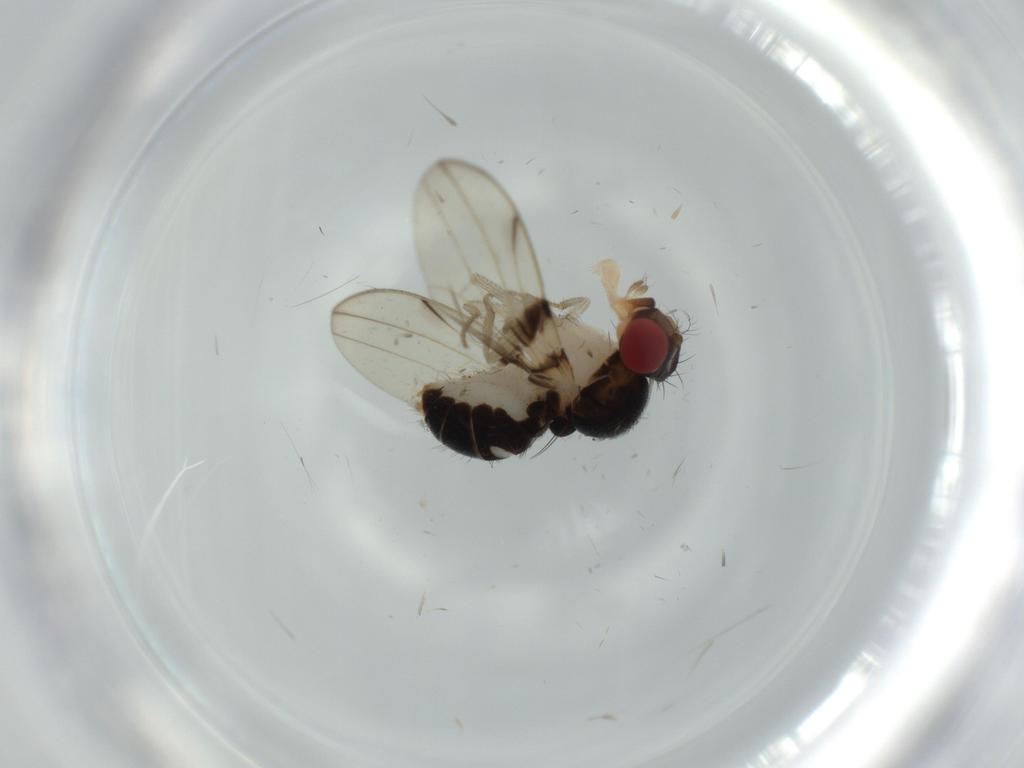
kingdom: Animalia
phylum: Arthropoda
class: Insecta
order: Diptera
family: Drosophilidae
